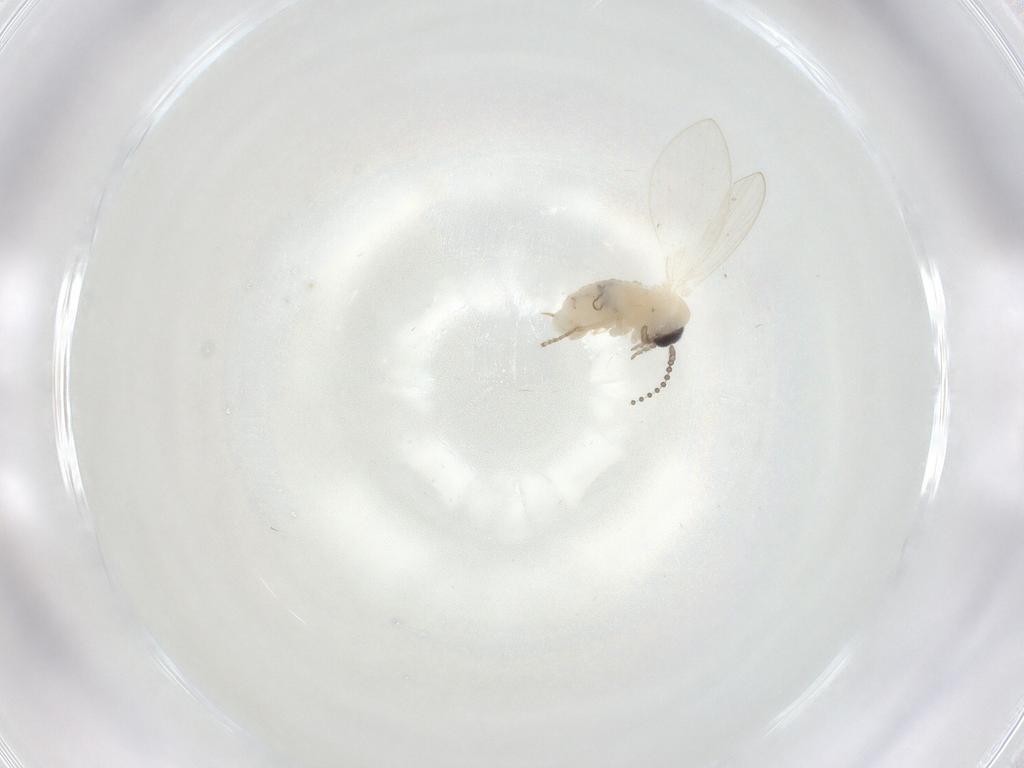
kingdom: Animalia
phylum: Arthropoda
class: Insecta
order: Diptera
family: Psychodidae
